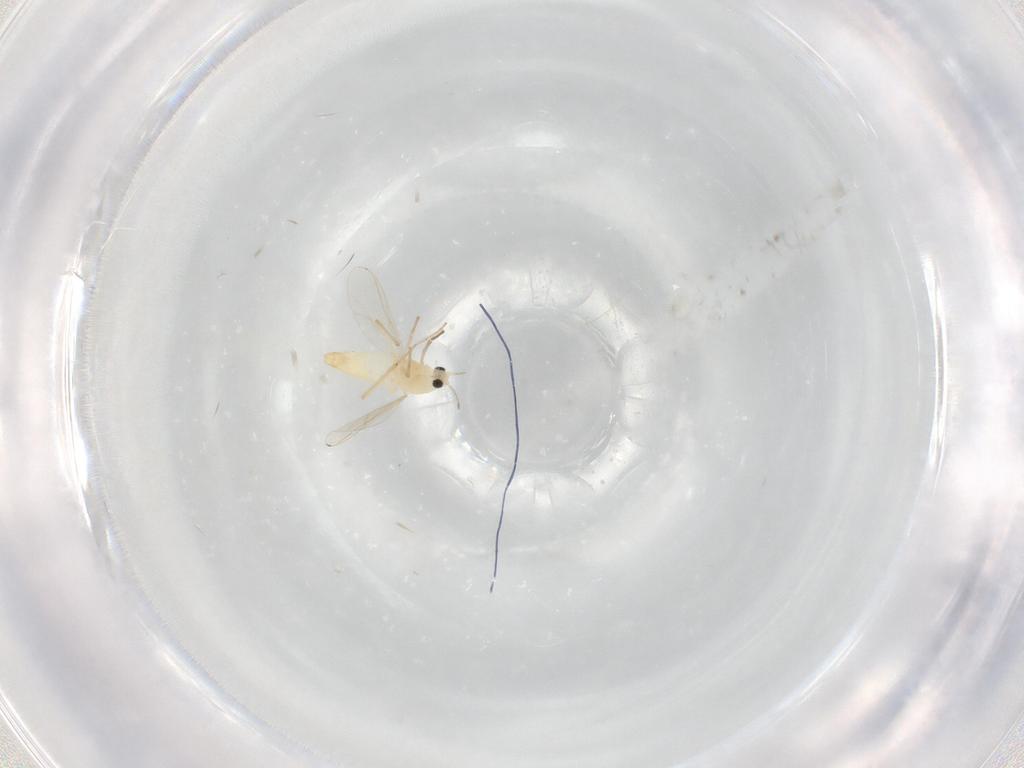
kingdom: Animalia
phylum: Arthropoda
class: Insecta
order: Diptera
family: Chironomidae
